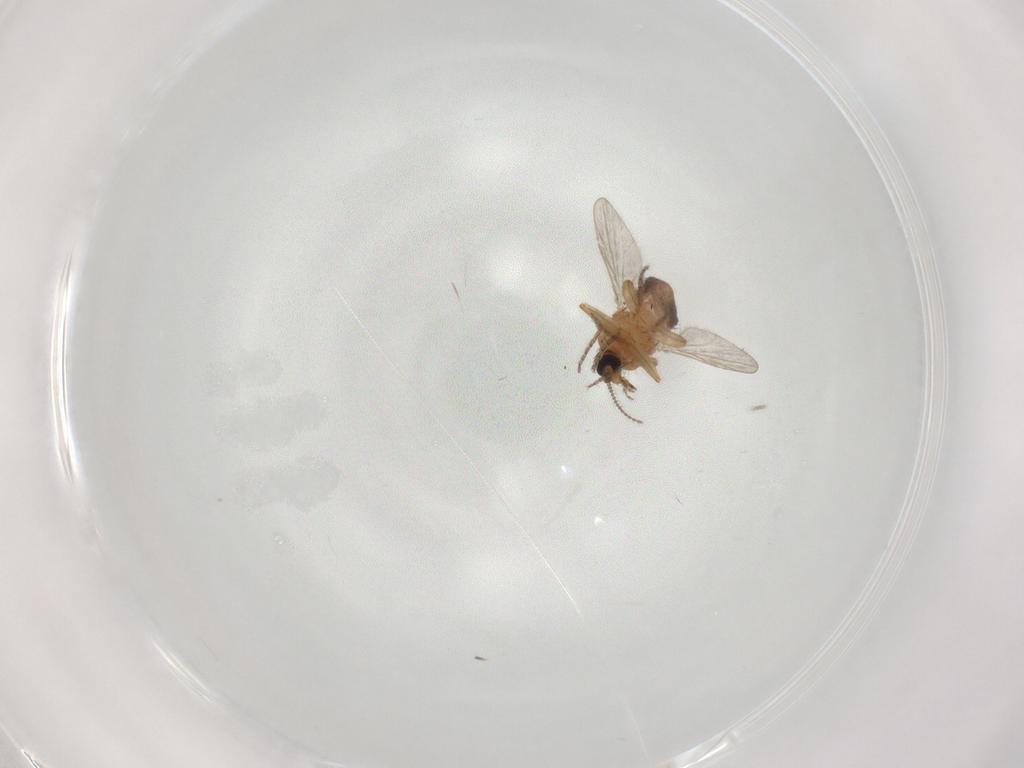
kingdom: Animalia
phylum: Arthropoda
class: Insecta
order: Diptera
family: Ceratopogonidae
